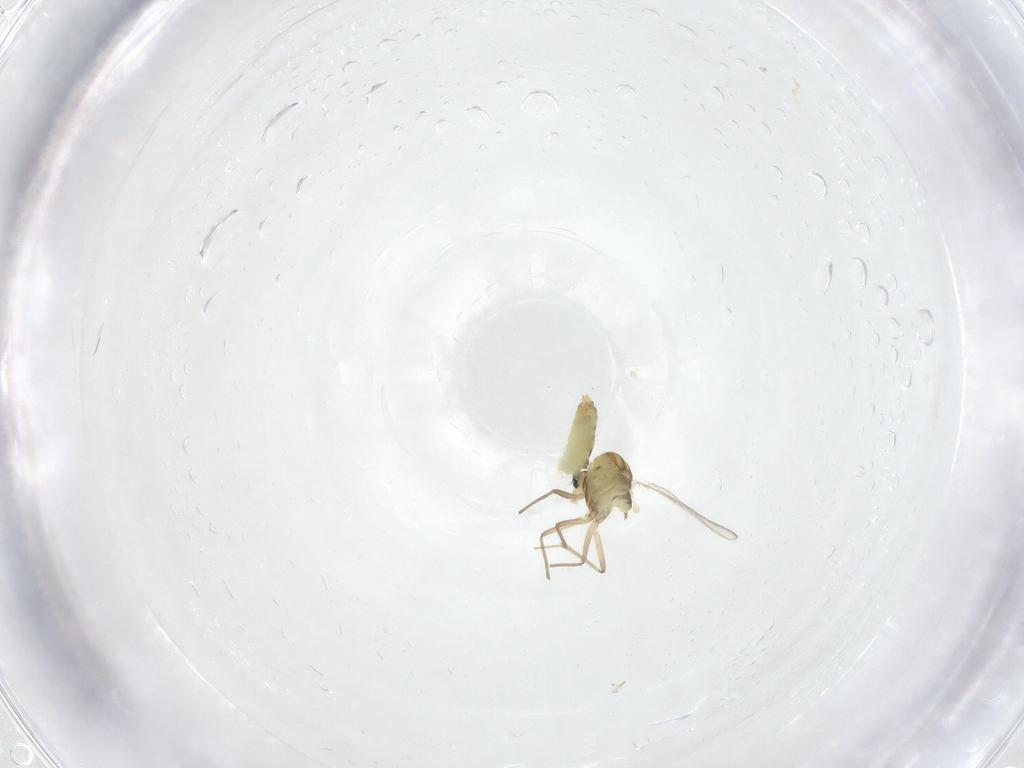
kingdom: Animalia
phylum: Arthropoda
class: Insecta
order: Diptera
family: Chironomidae
